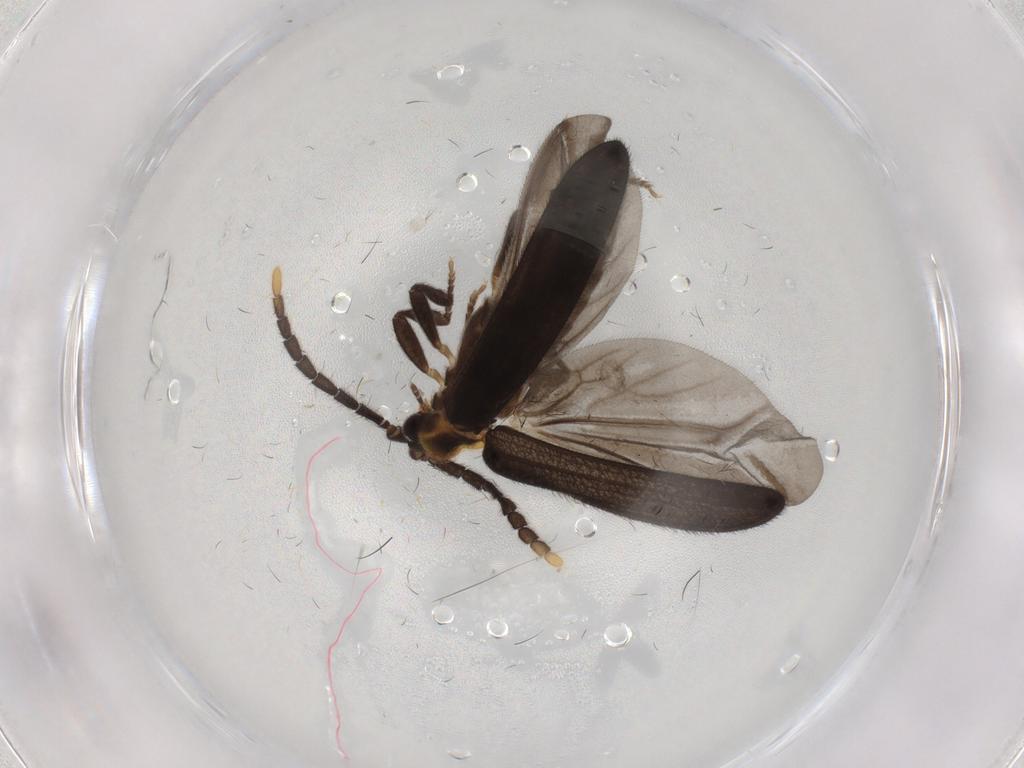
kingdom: Animalia
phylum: Arthropoda
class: Insecta
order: Coleoptera
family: Lycidae
